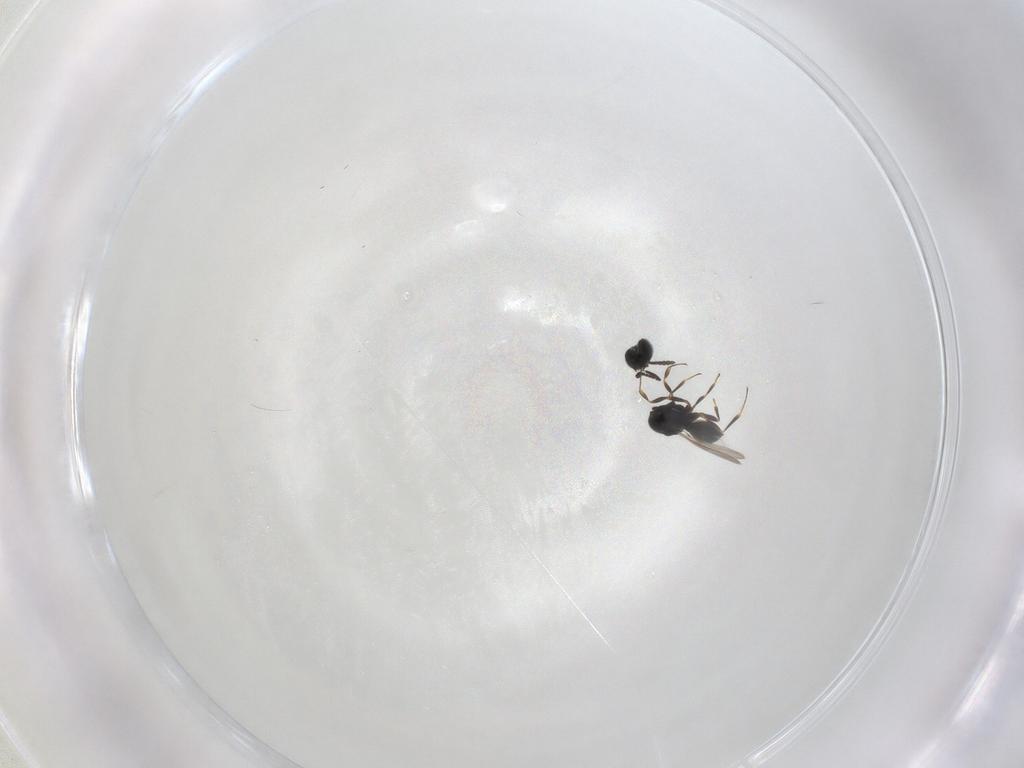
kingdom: Animalia
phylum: Arthropoda
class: Insecta
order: Hymenoptera
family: Scelionidae
